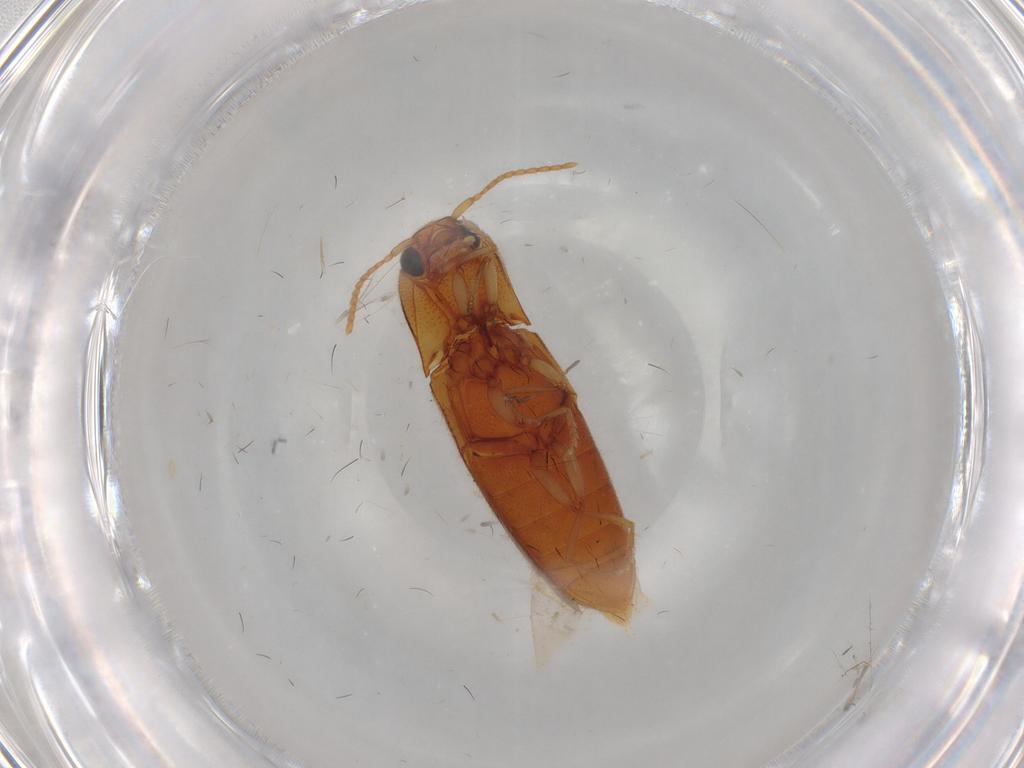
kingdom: Animalia
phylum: Arthropoda
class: Insecta
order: Coleoptera
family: Elateridae
